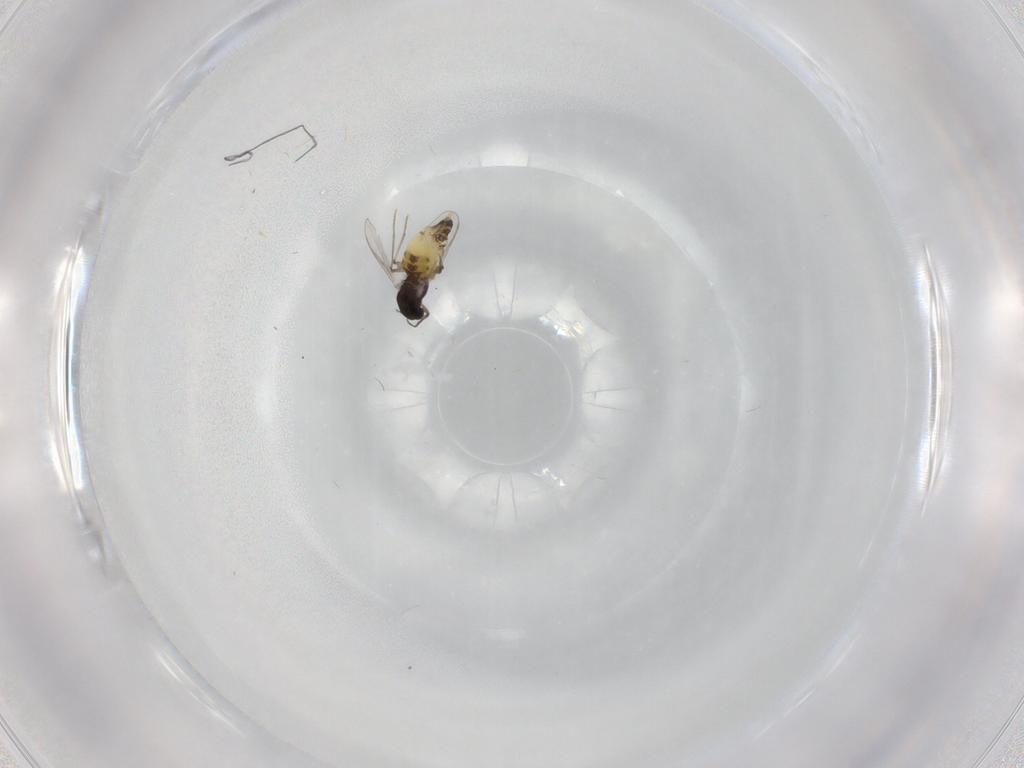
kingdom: Animalia
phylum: Arthropoda
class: Insecta
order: Diptera
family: Chironomidae
